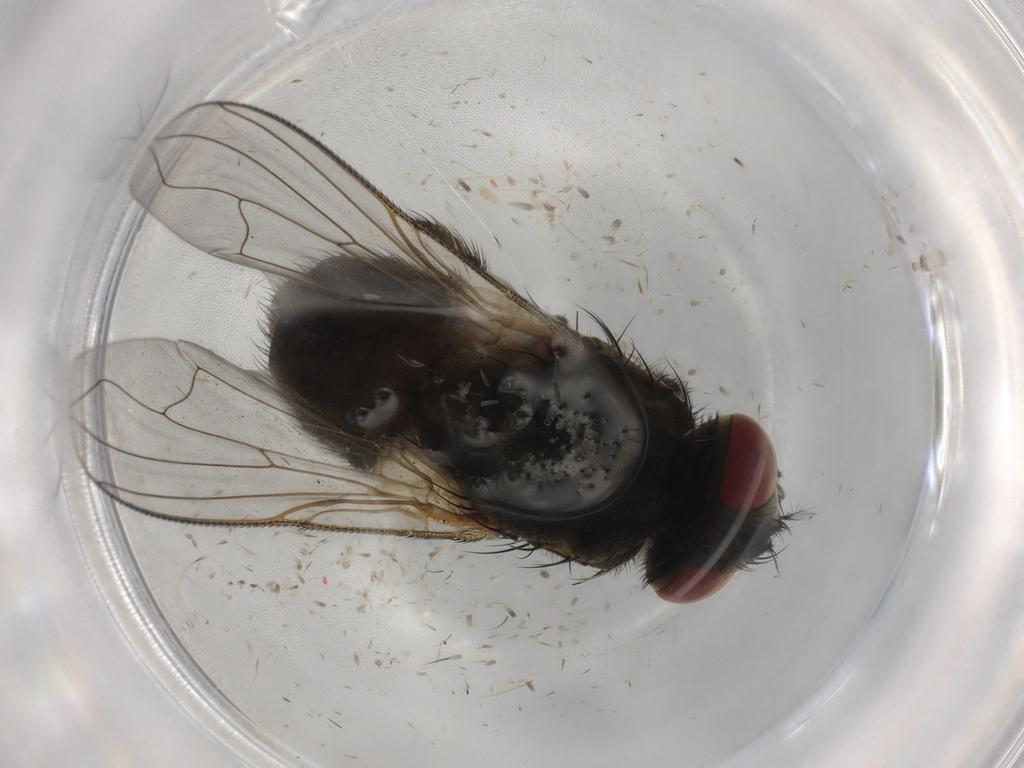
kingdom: Animalia
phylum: Arthropoda
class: Insecta
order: Diptera
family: Muscidae
